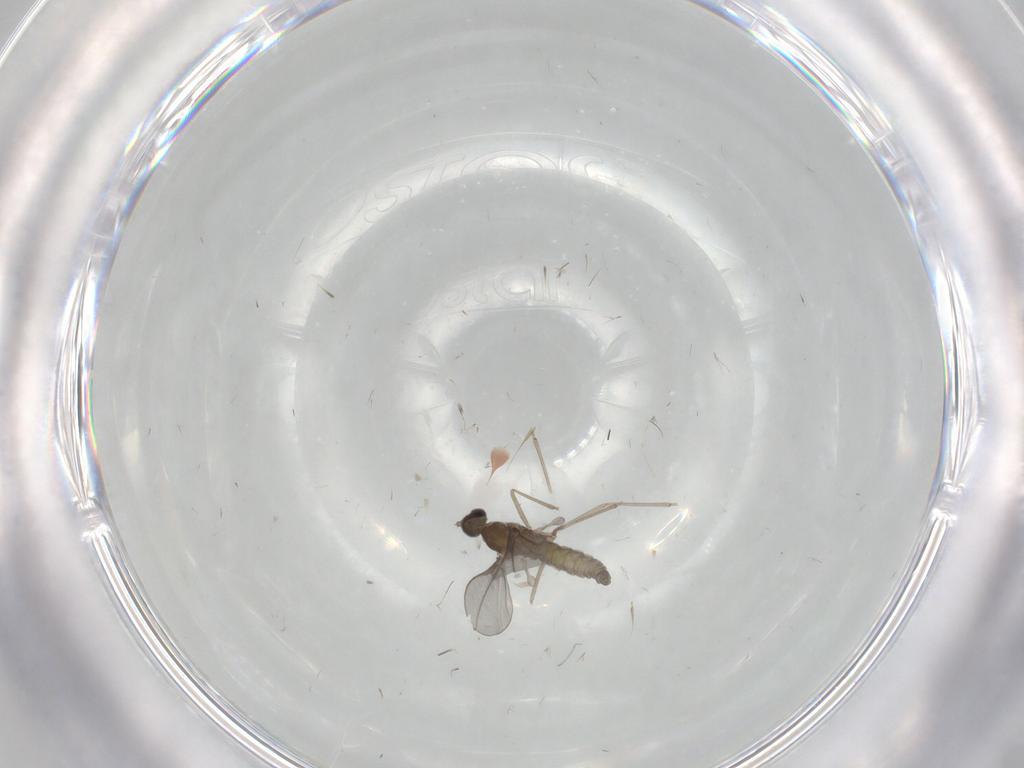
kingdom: Animalia
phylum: Arthropoda
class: Insecta
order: Diptera
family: Cecidomyiidae
